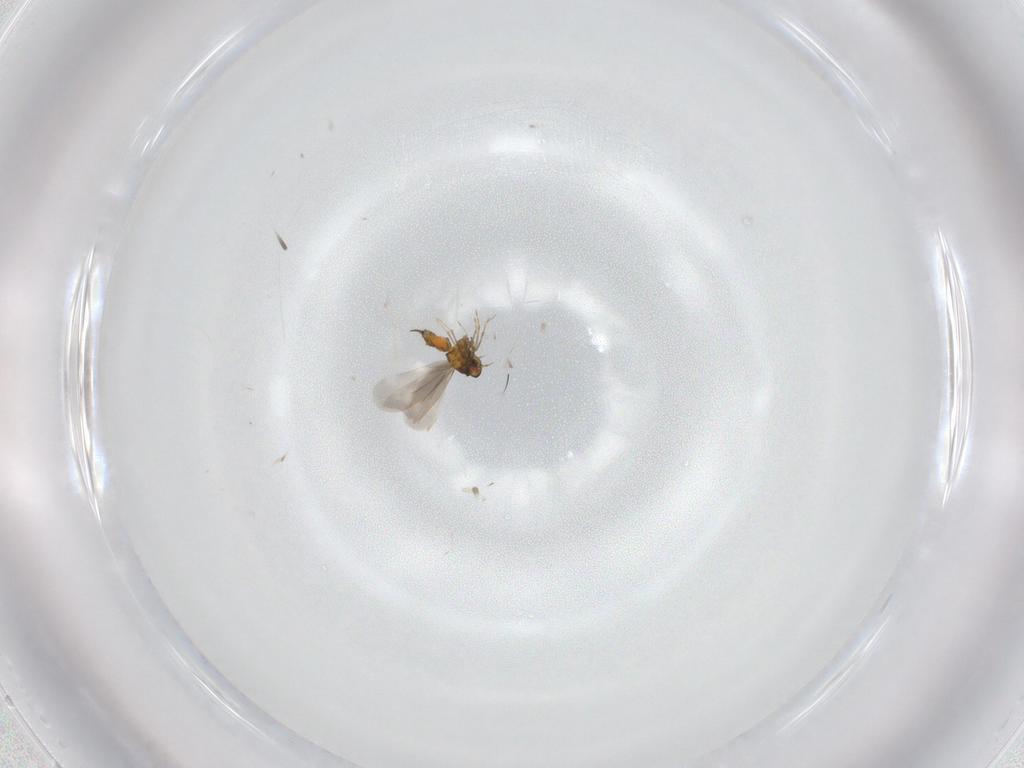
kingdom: Animalia
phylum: Arthropoda
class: Insecta
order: Hemiptera
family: Aleyrodidae
